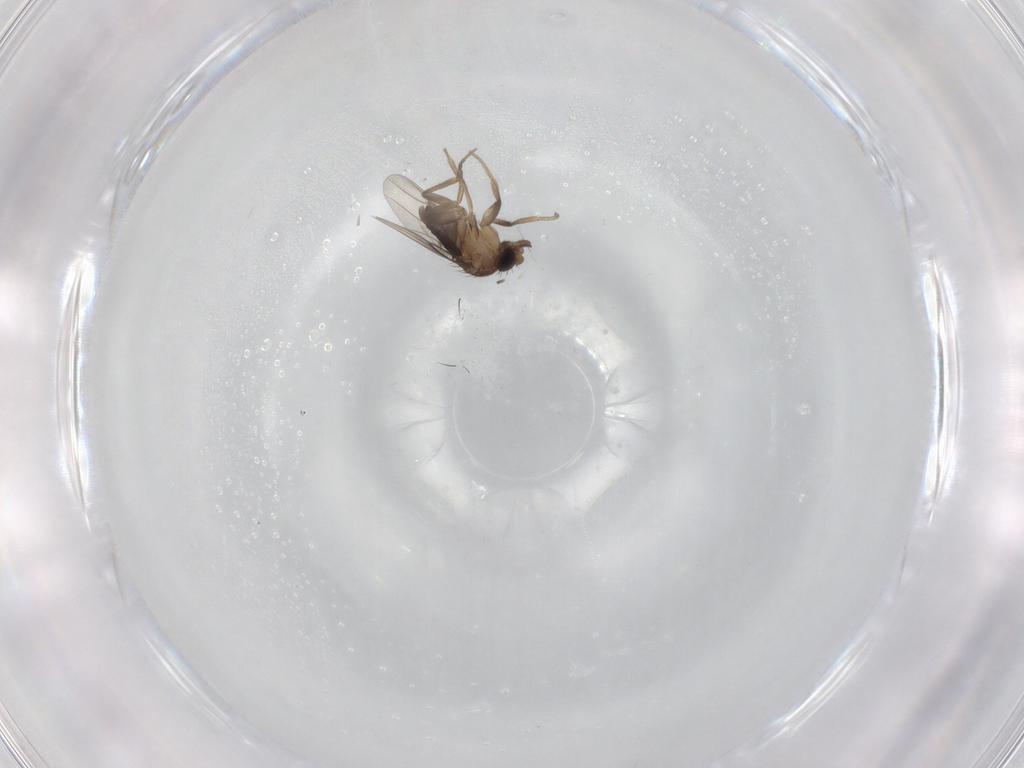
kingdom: Animalia
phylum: Arthropoda
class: Insecta
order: Diptera
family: Phoridae
